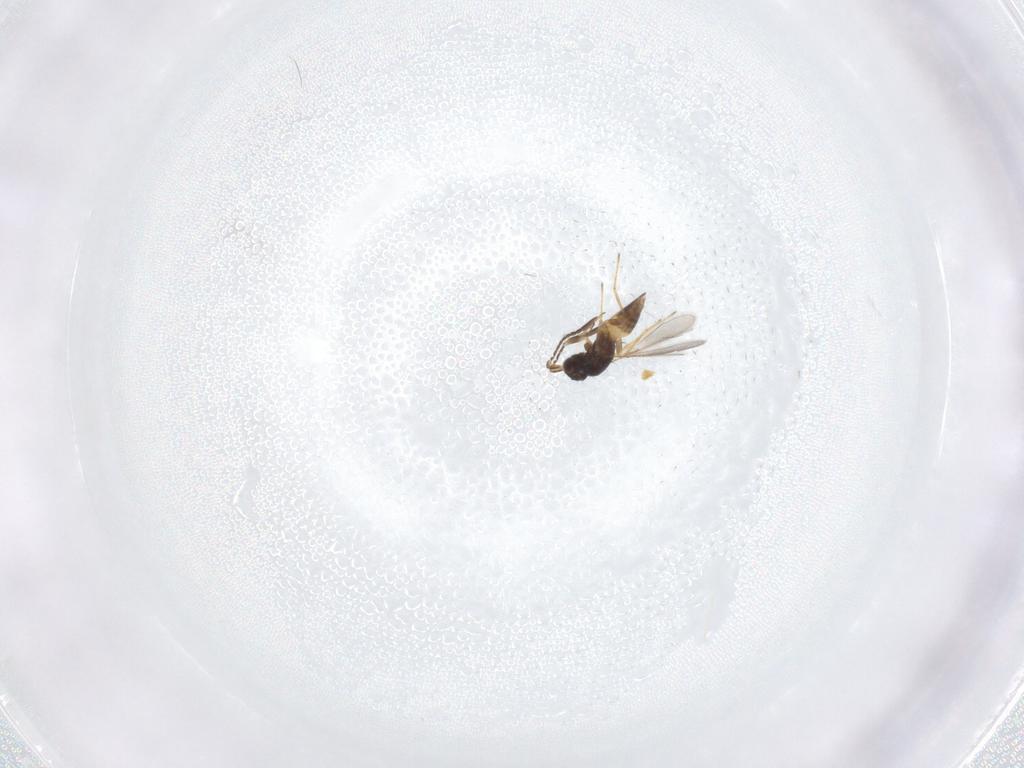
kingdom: Animalia
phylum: Arthropoda
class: Insecta
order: Hymenoptera
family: Mymaridae
